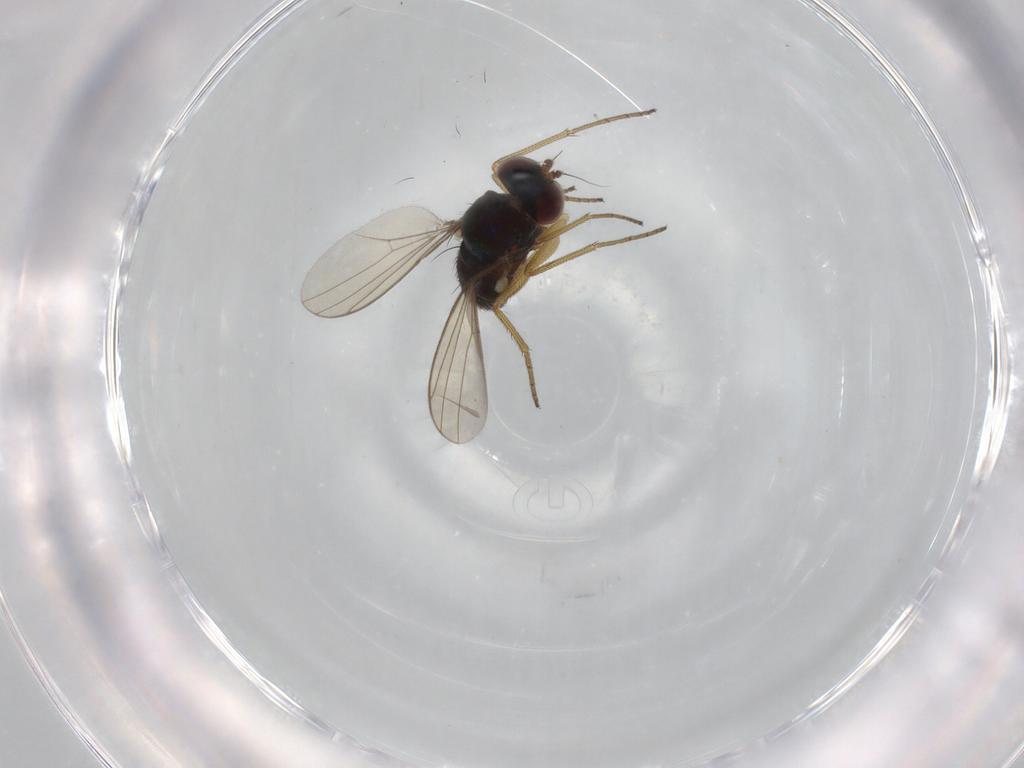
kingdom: Animalia
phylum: Arthropoda
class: Insecta
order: Diptera
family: Dolichopodidae
